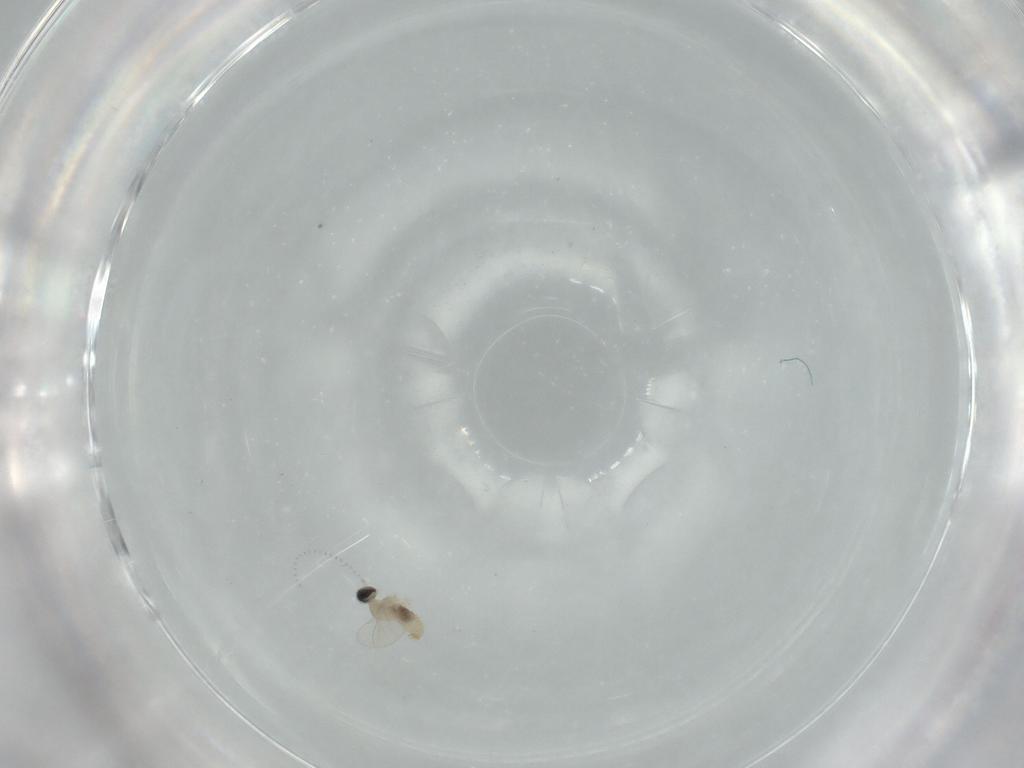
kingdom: Animalia
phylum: Arthropoda
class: Insecta
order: Diptera
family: Cecidomyiidae
